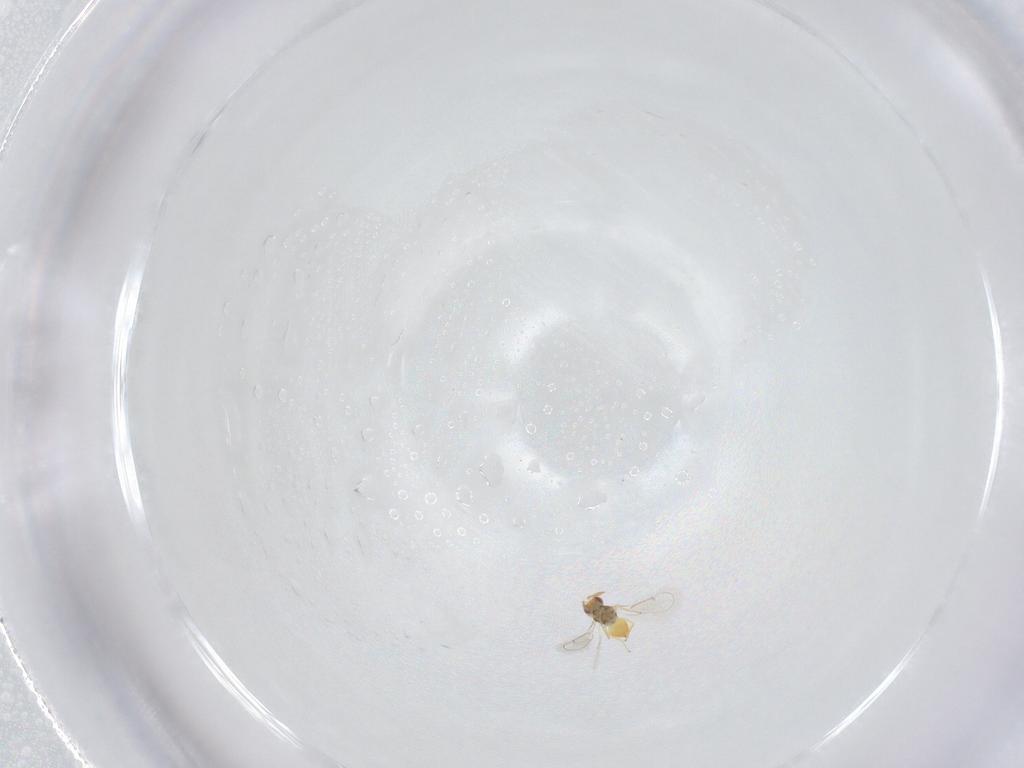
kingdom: Animalia
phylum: Arthropoda
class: Insecta
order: Hymenoptera
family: Eulophidae
